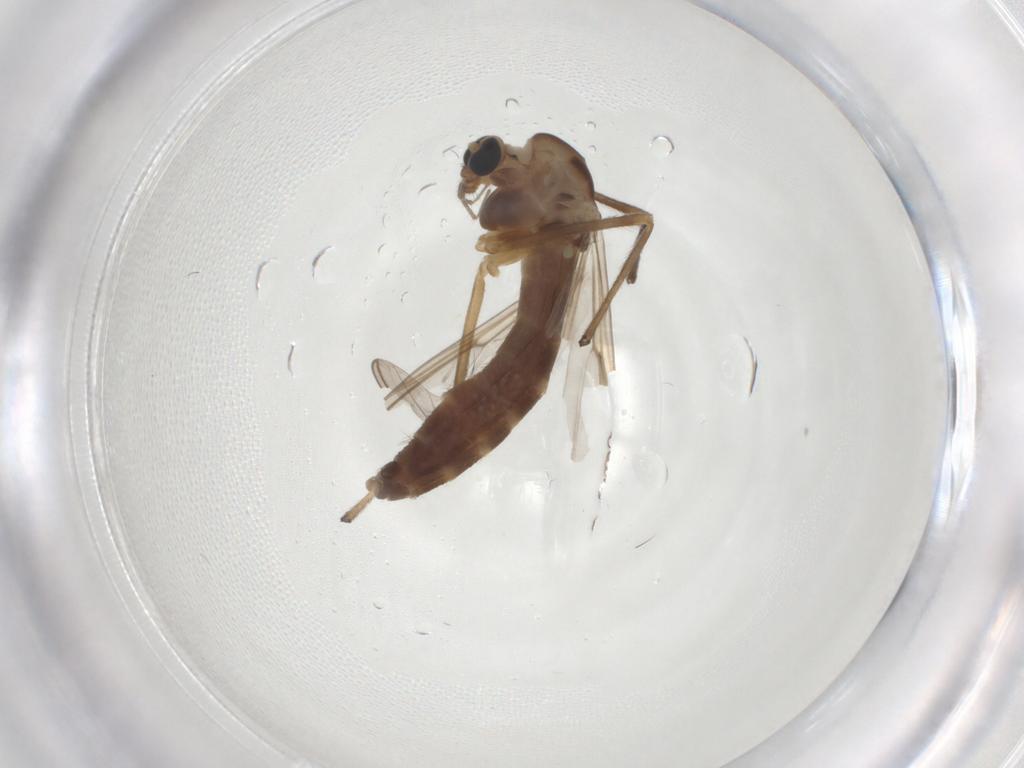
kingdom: Animalia
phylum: Arthropoda
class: Insecta
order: Diptera
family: Chironomidae
